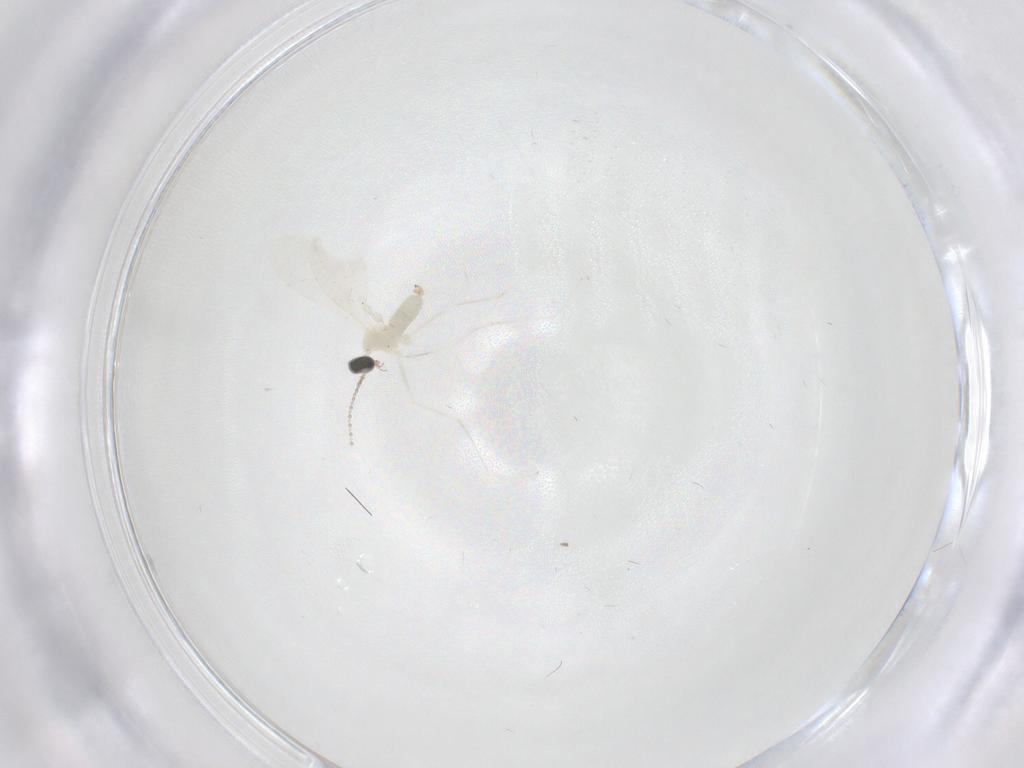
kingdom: Animalia
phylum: Arthropoda
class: Insecta
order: Diptera
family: Cecidomyiidae
